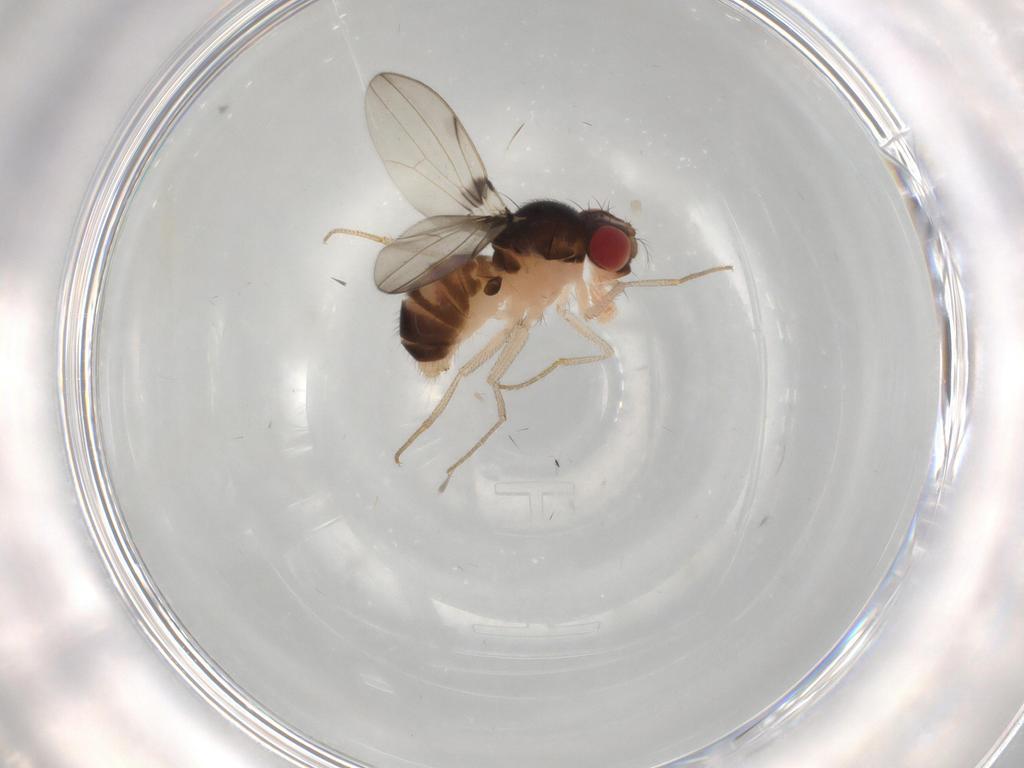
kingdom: Animalia
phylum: Arthropoda
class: Insecta
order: Diptera
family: Drosophilidae
